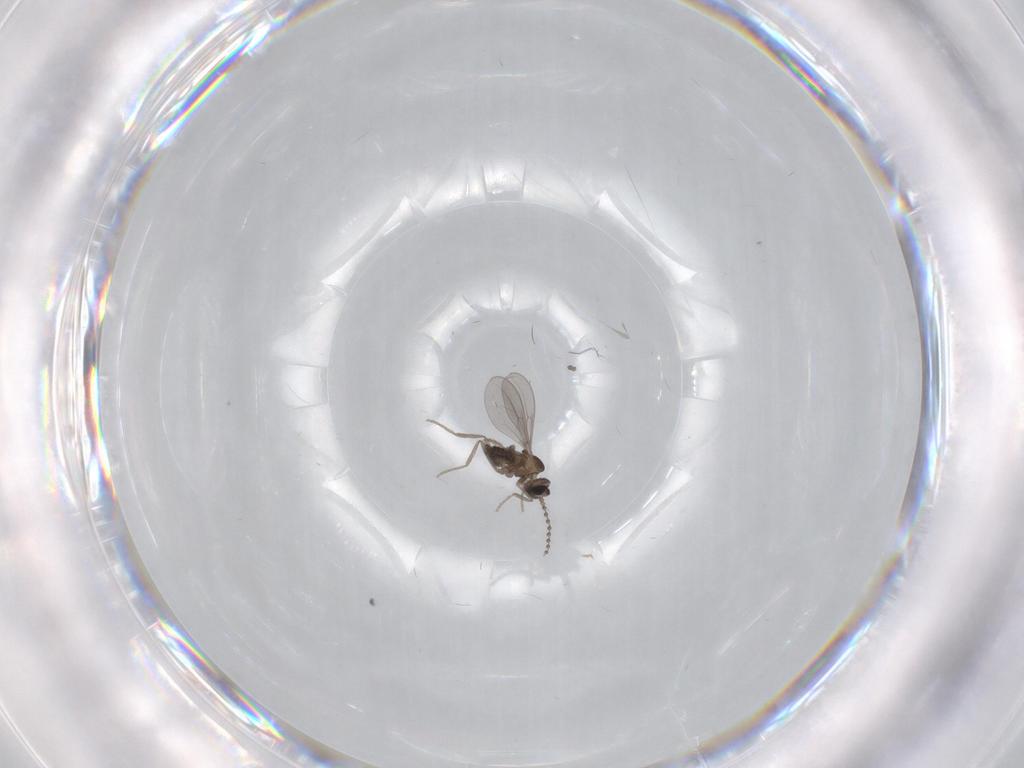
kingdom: Animalia
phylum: Arthropoda
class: Insecta
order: Diptera
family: Cecidomyiidae
